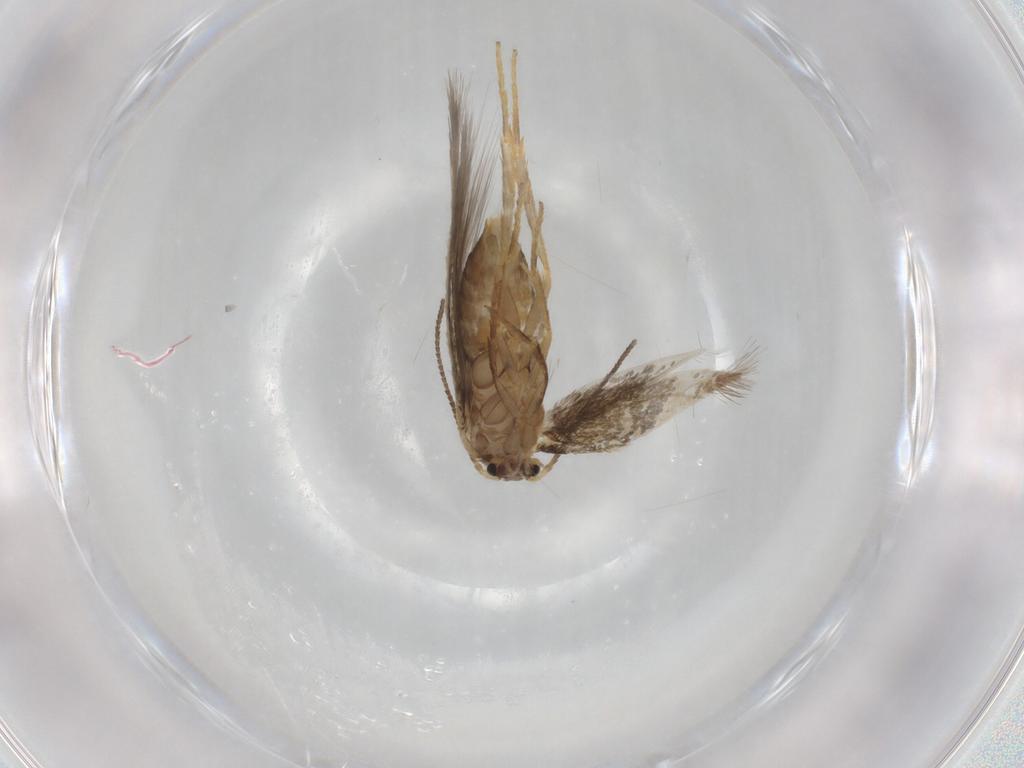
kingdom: Animalia
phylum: Arthropoda
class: Insecta
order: Lepidoptera
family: Nepticulidae
